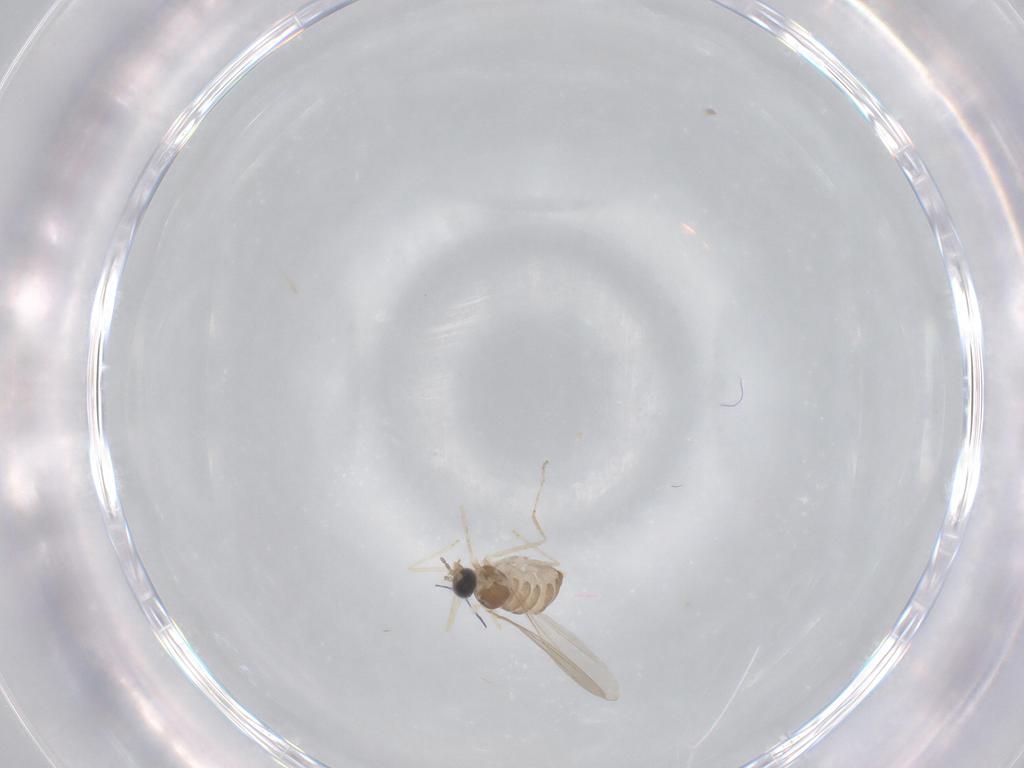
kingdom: Animalia
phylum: Arthropoda
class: Insecta
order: Diptera
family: Cecidomyiidae
